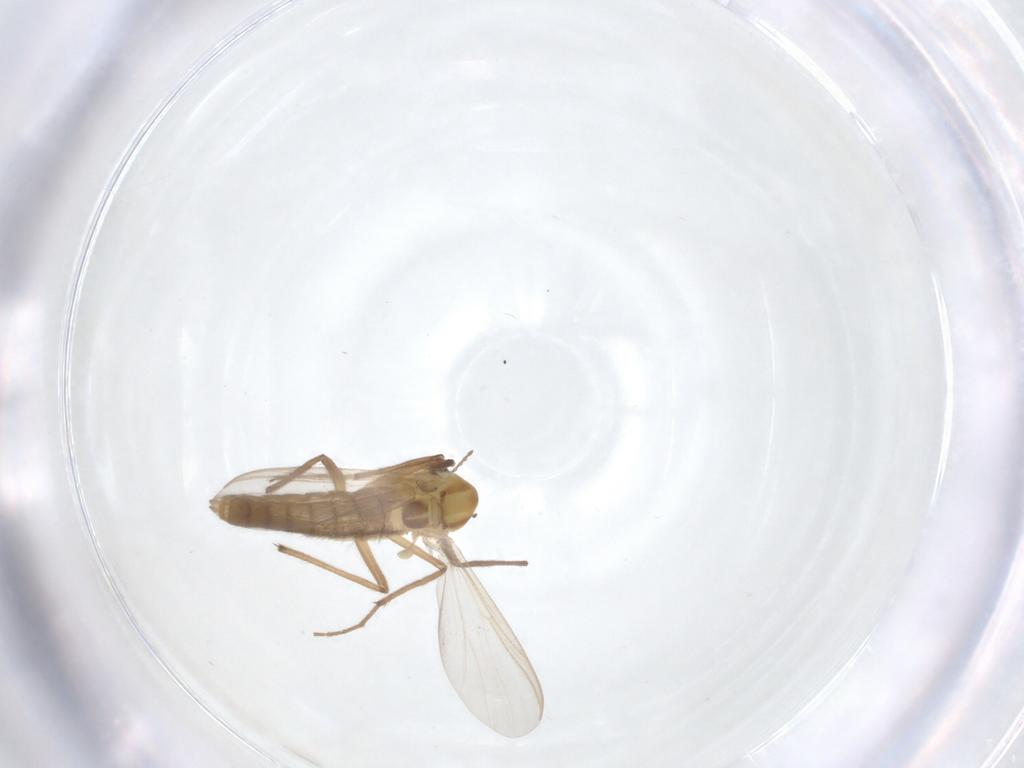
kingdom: Animalia
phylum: Arthropoda
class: Insecta
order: Diptera
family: Chironomidae
